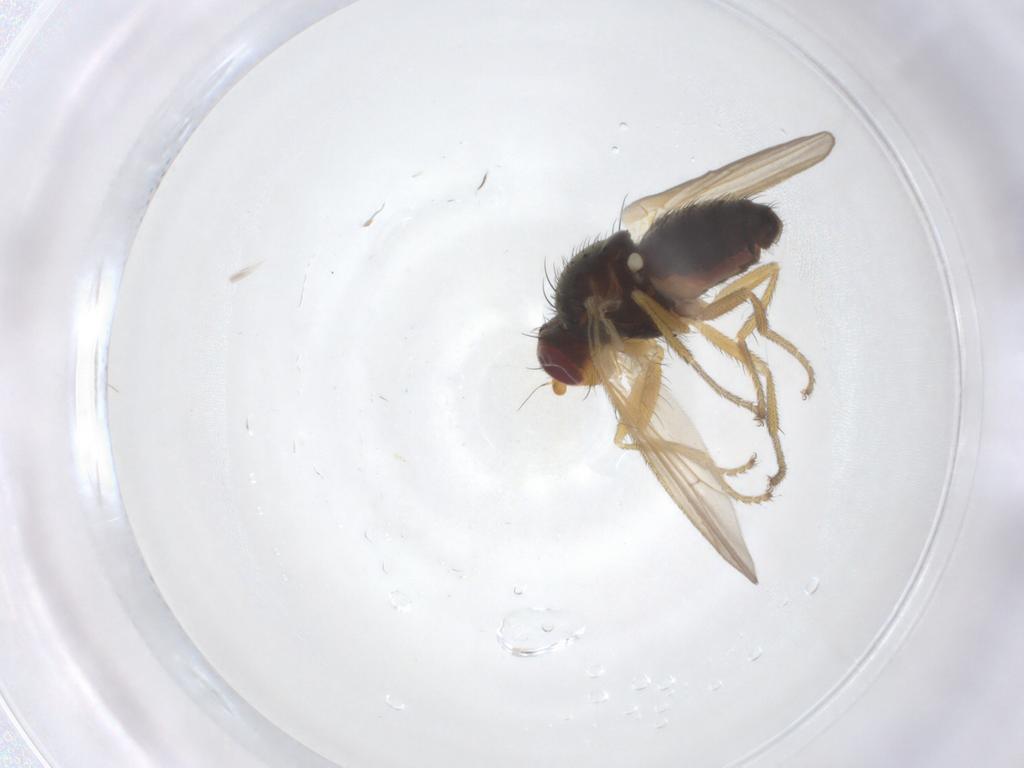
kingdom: Animalia
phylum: Arthropoda
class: Insecta
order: Diptera
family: Heleomyzidae
